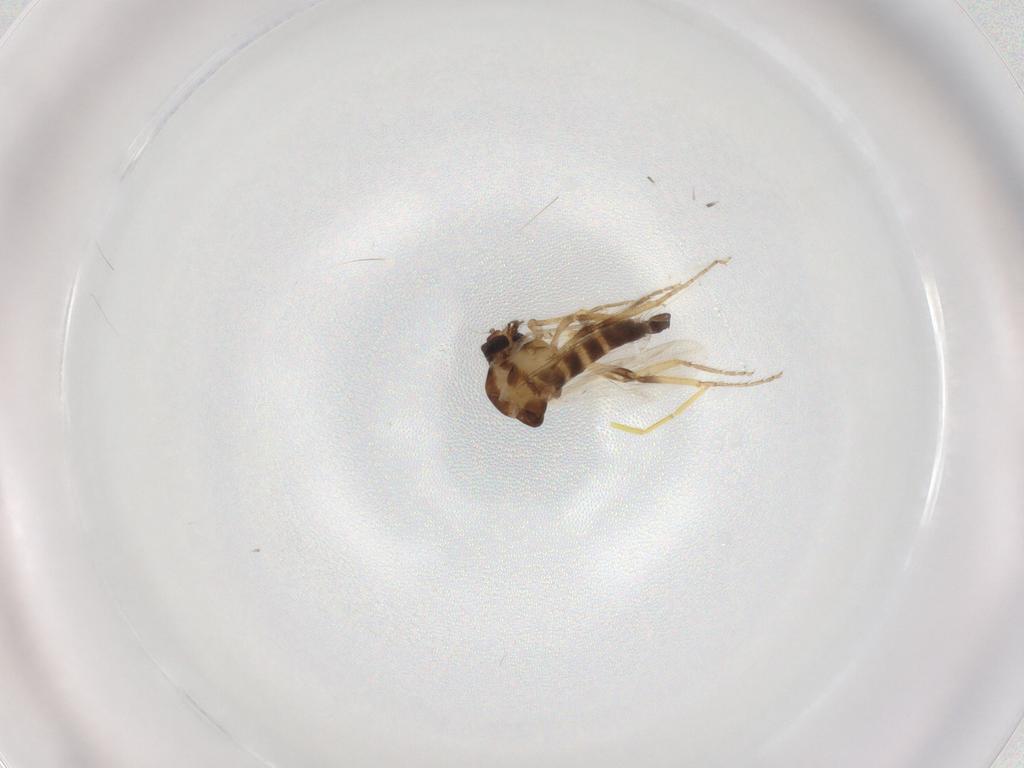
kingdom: Animalia
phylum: Arthropoda
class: Insecta
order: Diptera
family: Ceratopogonidae
